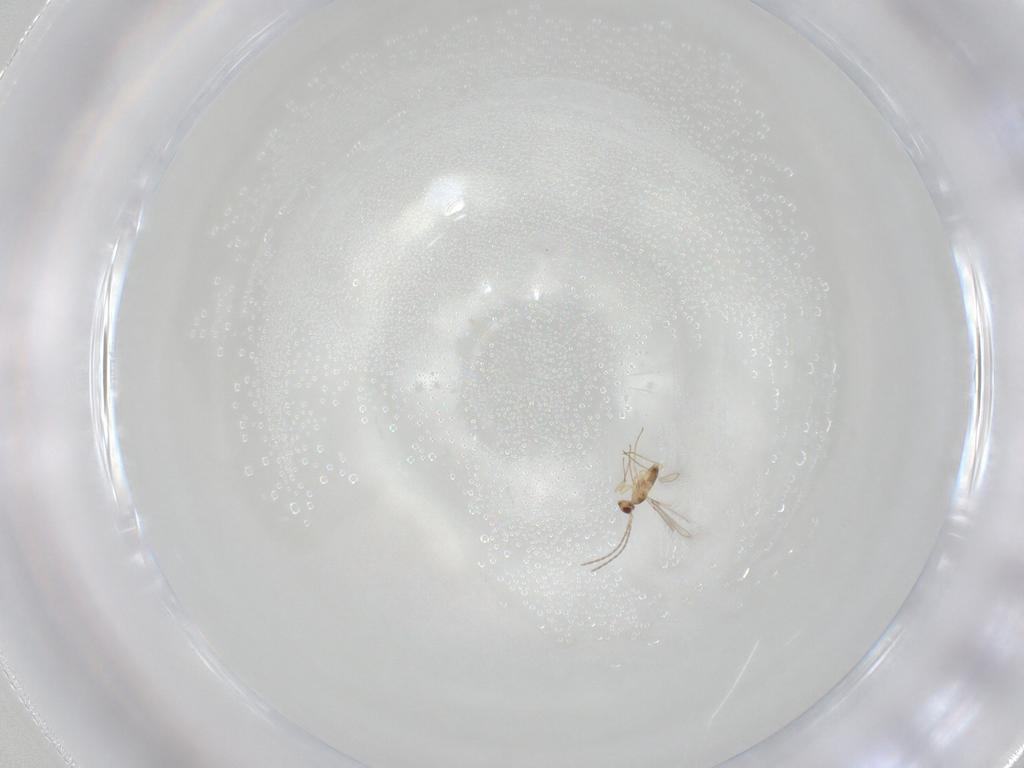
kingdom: Animalia
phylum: Arthropoda
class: Insecta
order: Hymenoptera
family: Mymaridae
